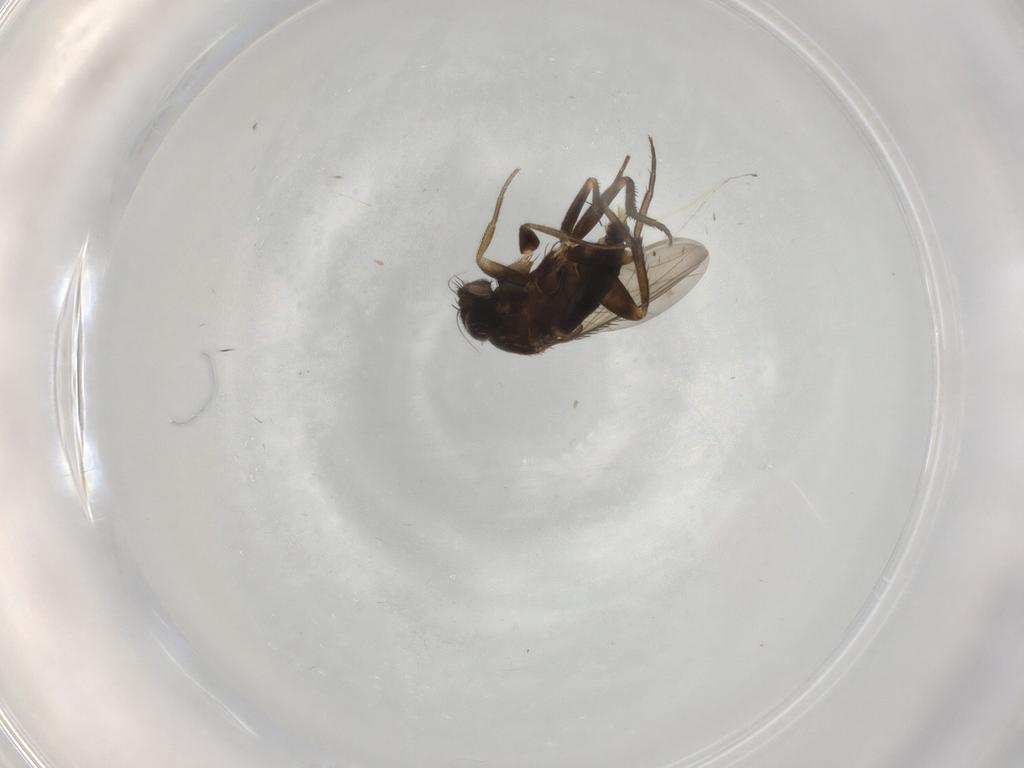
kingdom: Animalia
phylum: Arthropoda
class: Insecta
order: Diptera
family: Phoridae
